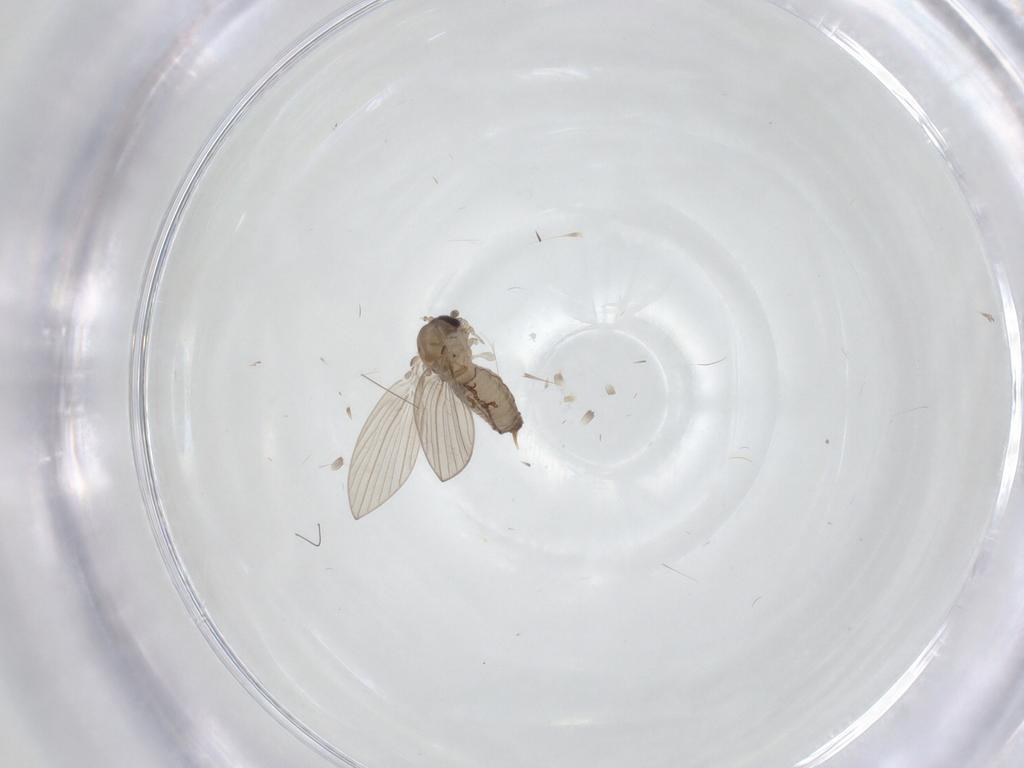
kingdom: Animalia
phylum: Arthropoda
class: Insecta
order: Diptera
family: Psychodidae
